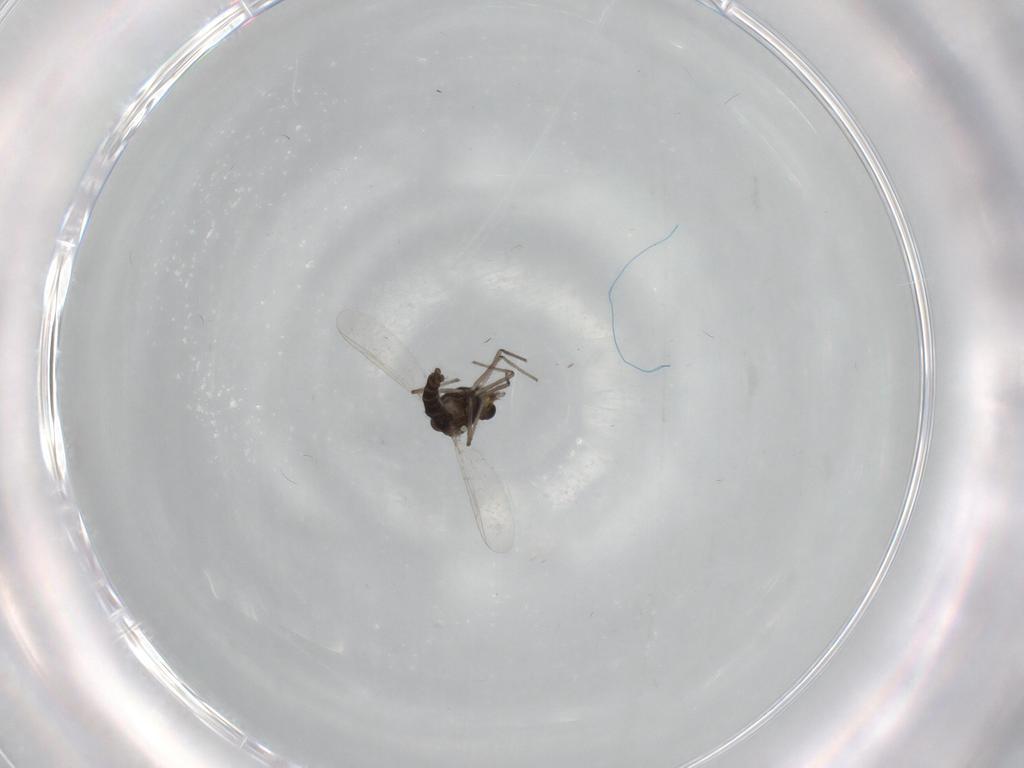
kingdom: Animalia
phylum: Arthropoda
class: Insecta
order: Diptera
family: Chironomidae
